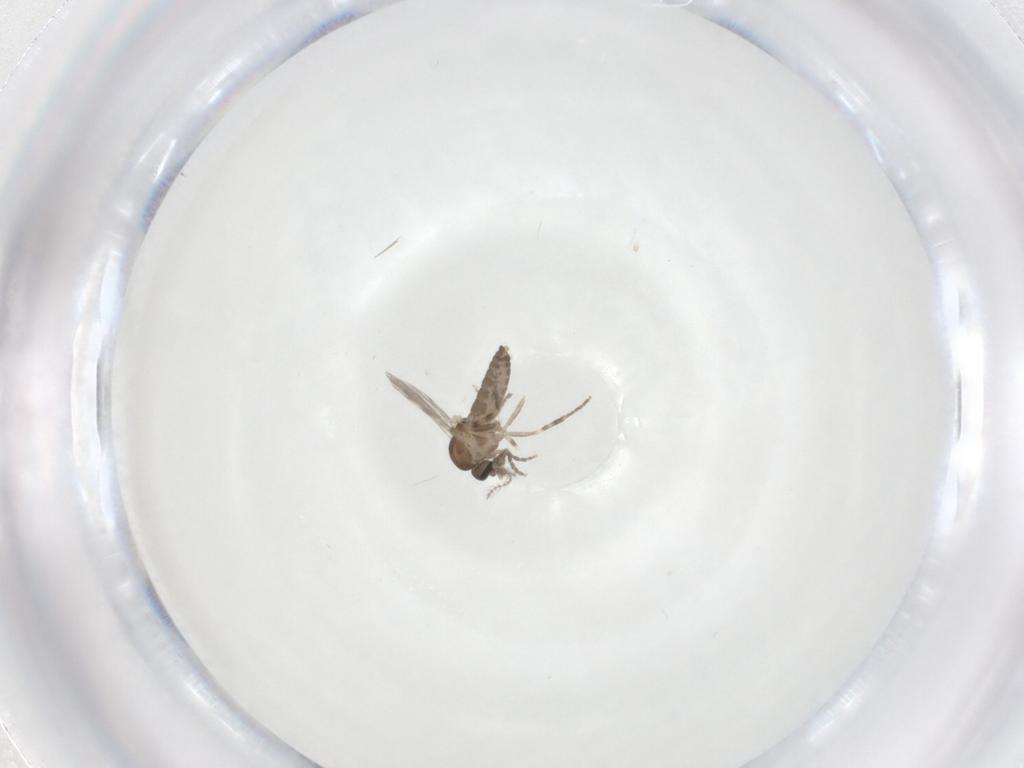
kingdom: Animalia
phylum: Arthropoda
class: Insecta
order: Diptera
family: Ceratopogonidae
